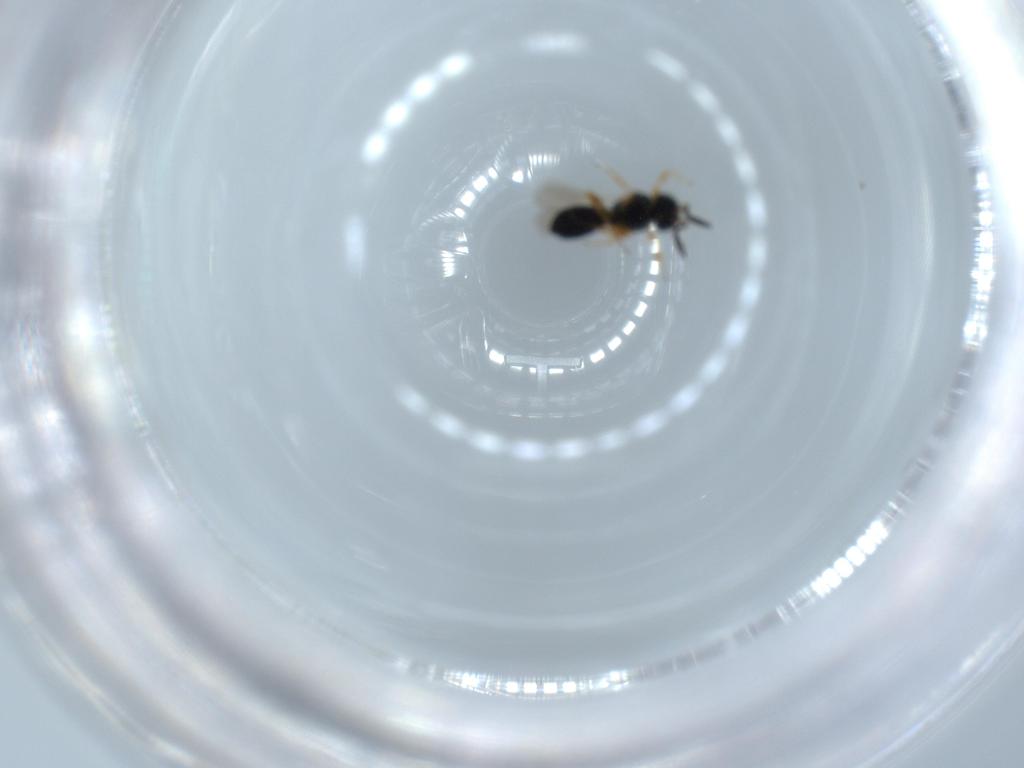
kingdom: Animalia
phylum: Arthropoda
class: Insecta
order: Hymenoptera
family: Scelionidae
